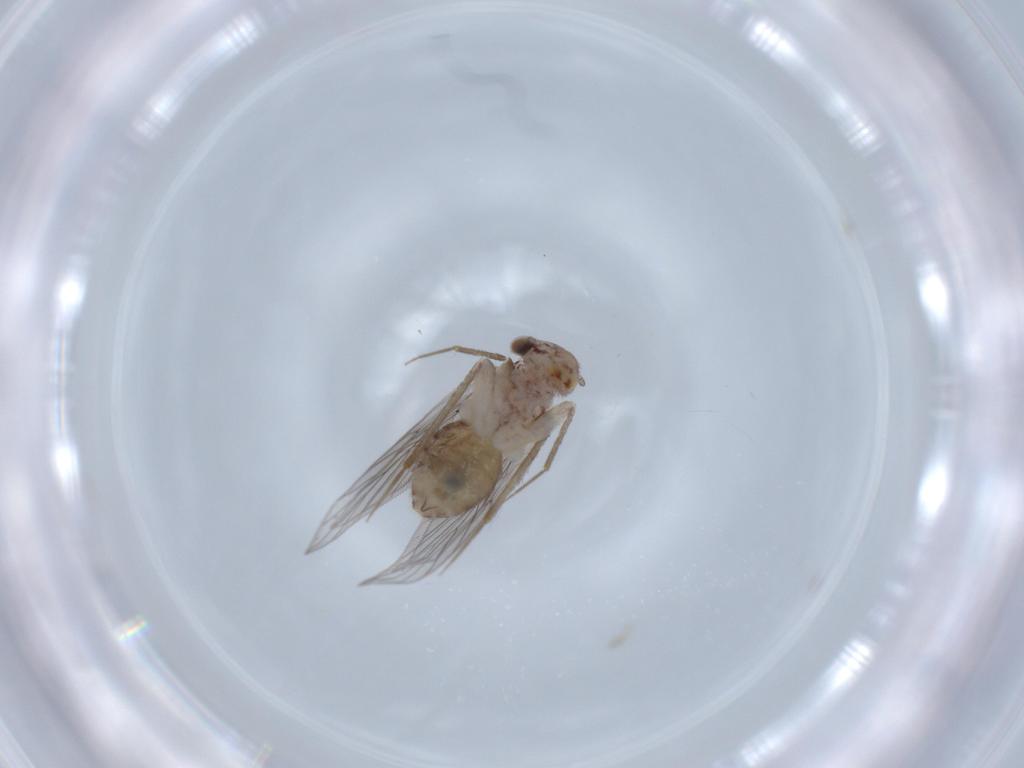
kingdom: Animalia
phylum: Arthropoda
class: Insecta
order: Psocodea
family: Lepidopsocidae
